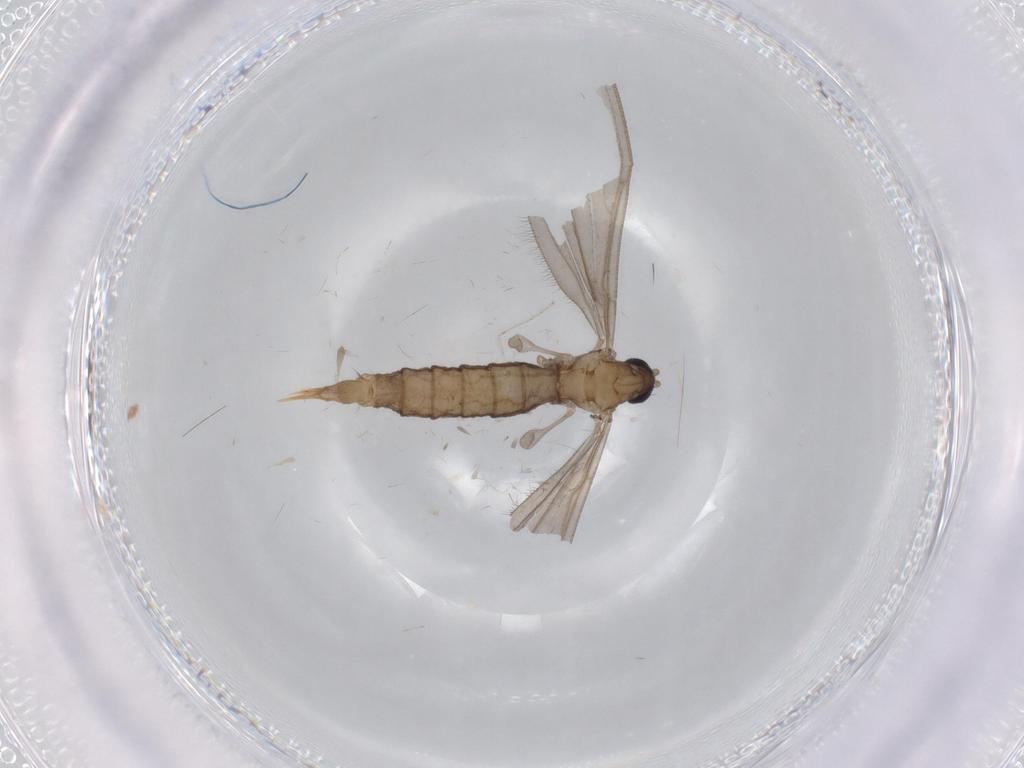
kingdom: Animalia
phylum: Arthropoda
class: Insecta
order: Diptera
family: Limoniidae
